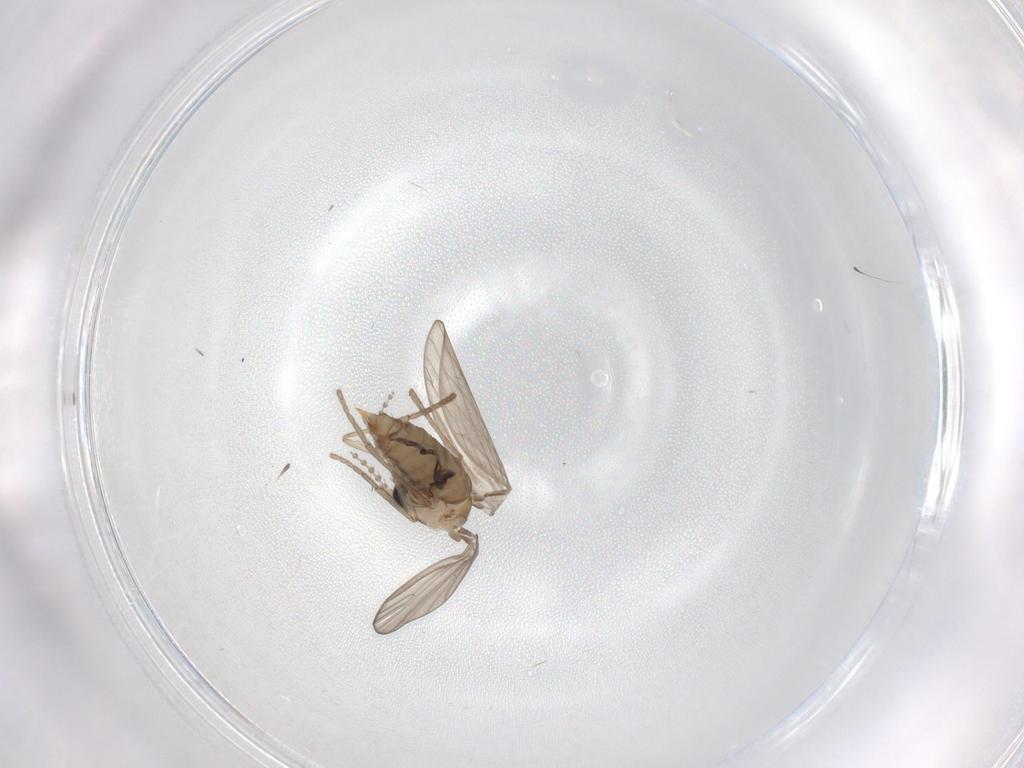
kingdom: Animalia
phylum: Arthropoda
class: Insecta
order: Diptera
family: Psychodidae
